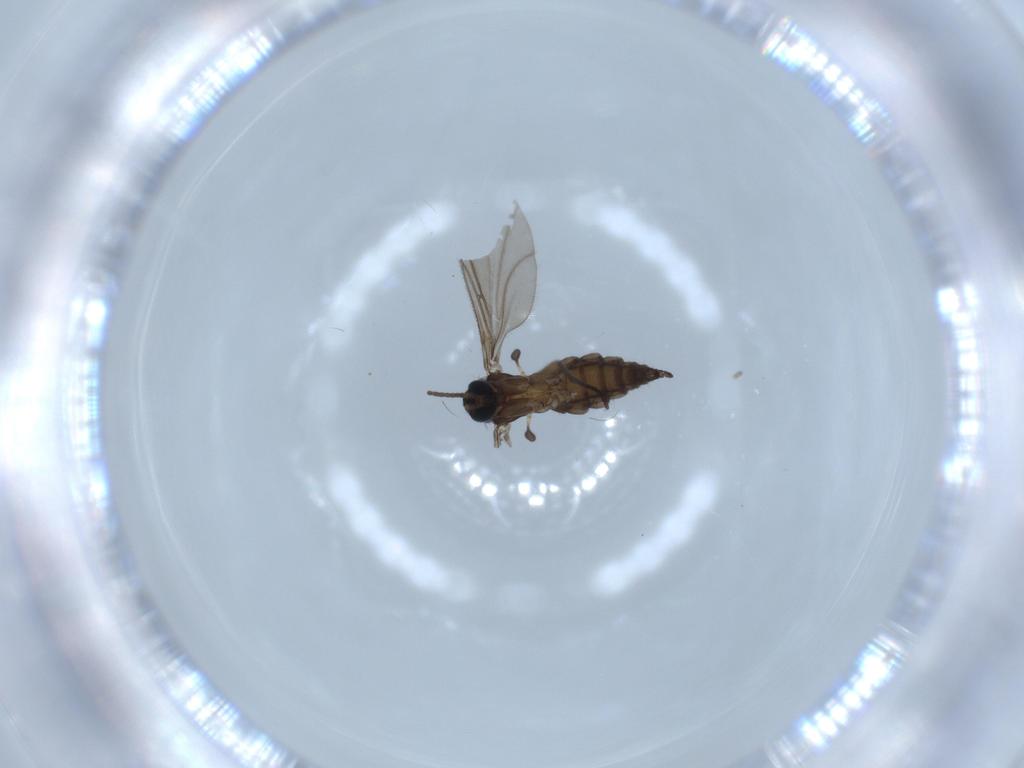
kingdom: Animalia
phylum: Arthropoda
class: Insecta
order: Diptera
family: Sciaridae
